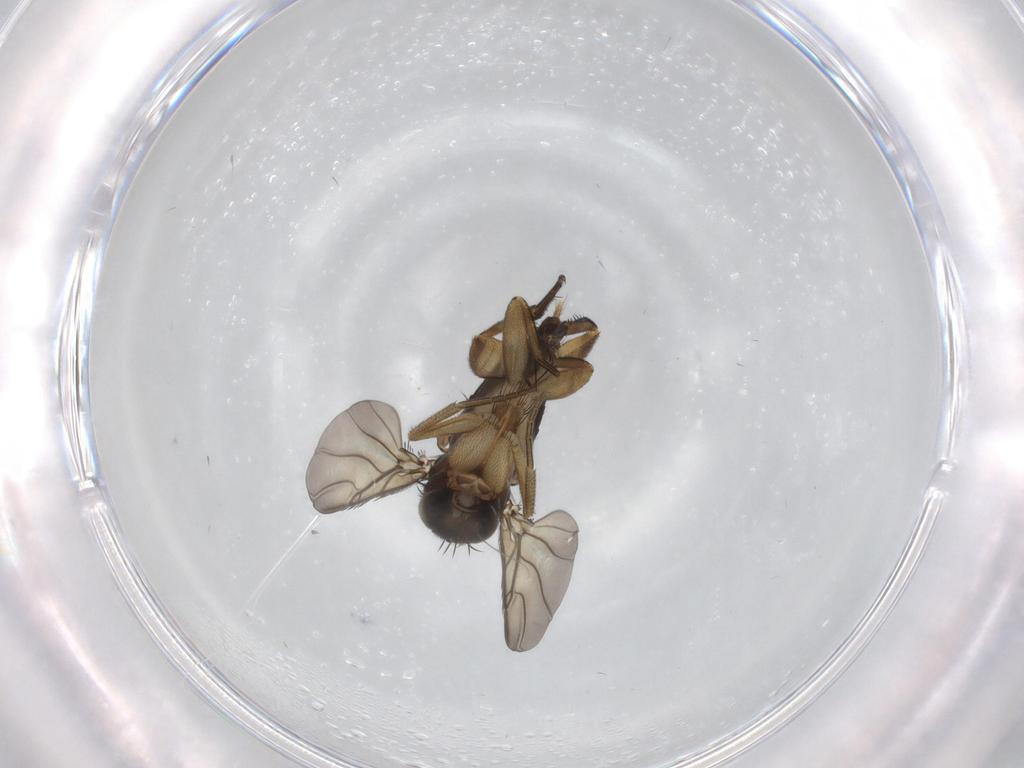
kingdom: Animalia
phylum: Arthropoda
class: Insecta
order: Diptera
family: Phoridae
